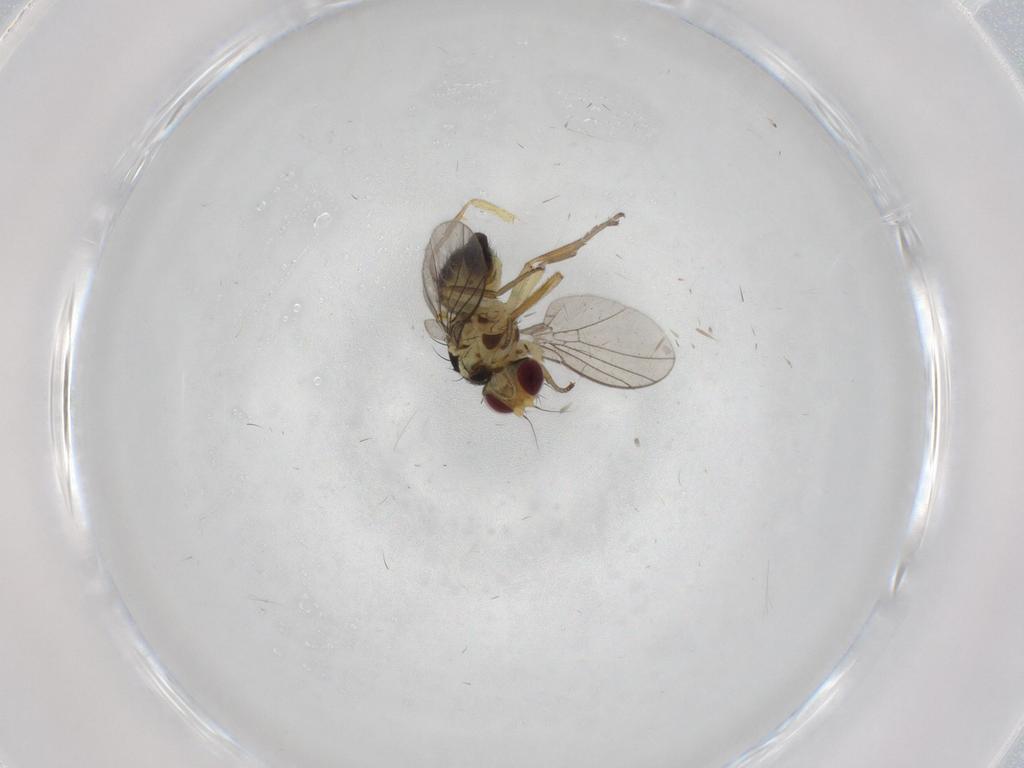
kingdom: Animalia
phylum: Arthropoda
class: Insecta
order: Diptera
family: Agromyzidae
